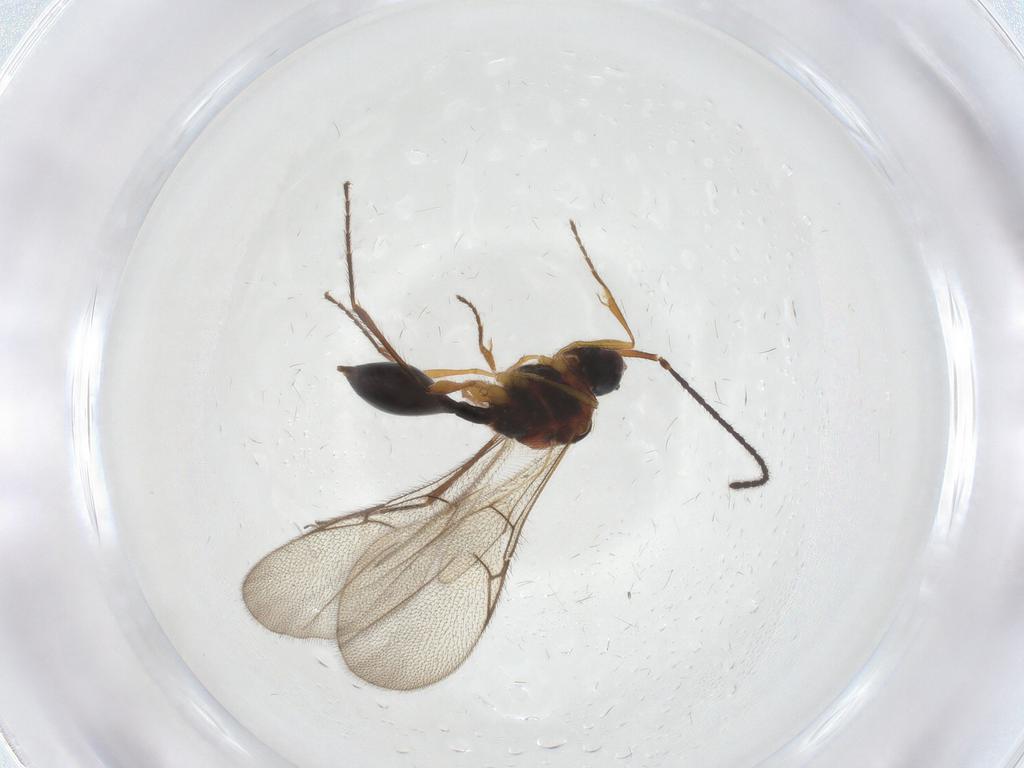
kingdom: Animalia
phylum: Arthropoda
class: Insecta
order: Hymenoptera
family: Diapriidae
